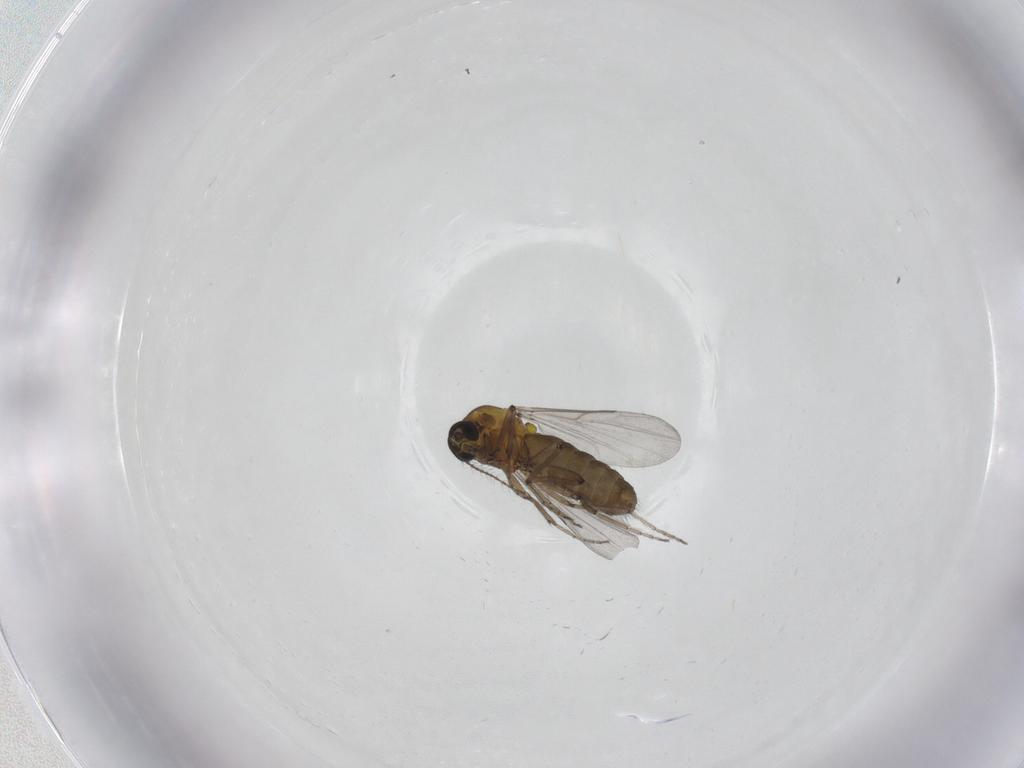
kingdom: Animalia
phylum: Arthropoda
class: Insecta
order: Diptera
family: Ceratopogonidae
